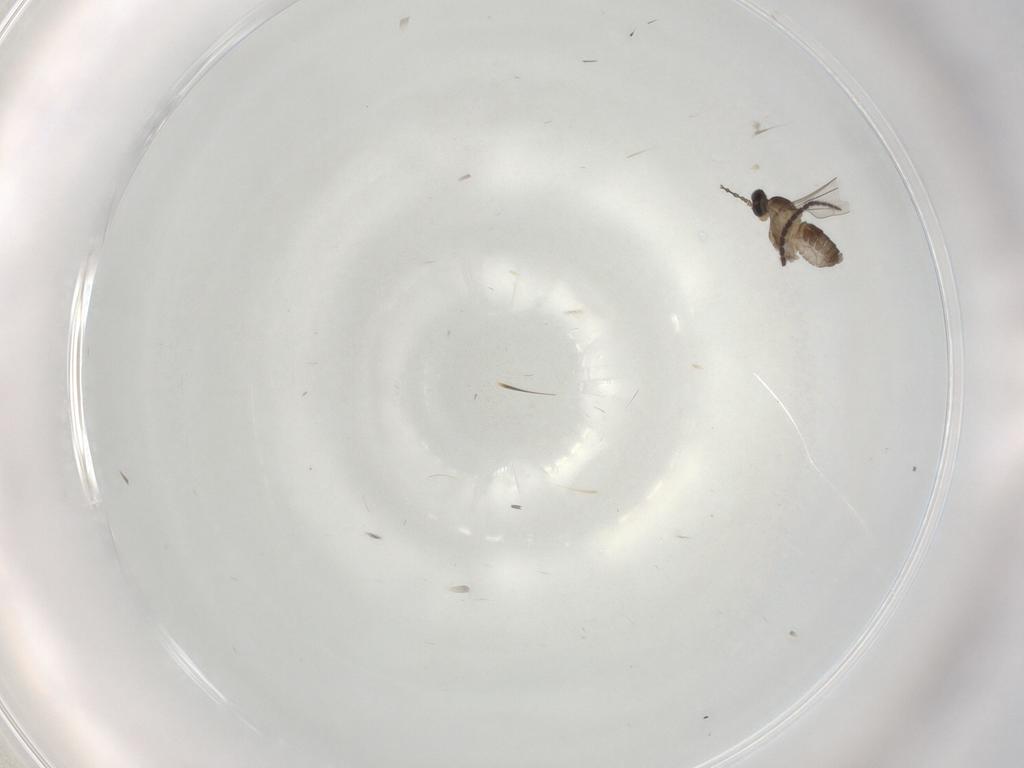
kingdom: Animalia
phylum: Arthropoda
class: Insecta
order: Diptera
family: Cecidomyiidae
